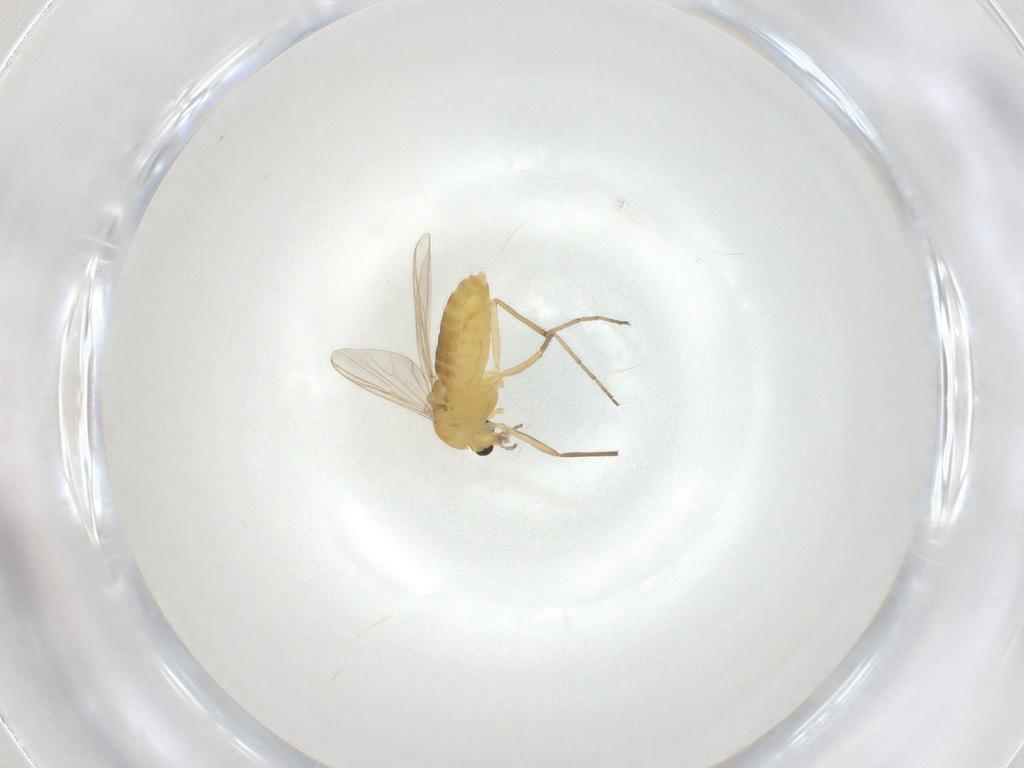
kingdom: Animalia
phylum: Arthropoda
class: Insecta
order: Diptera
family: Chironomidae
